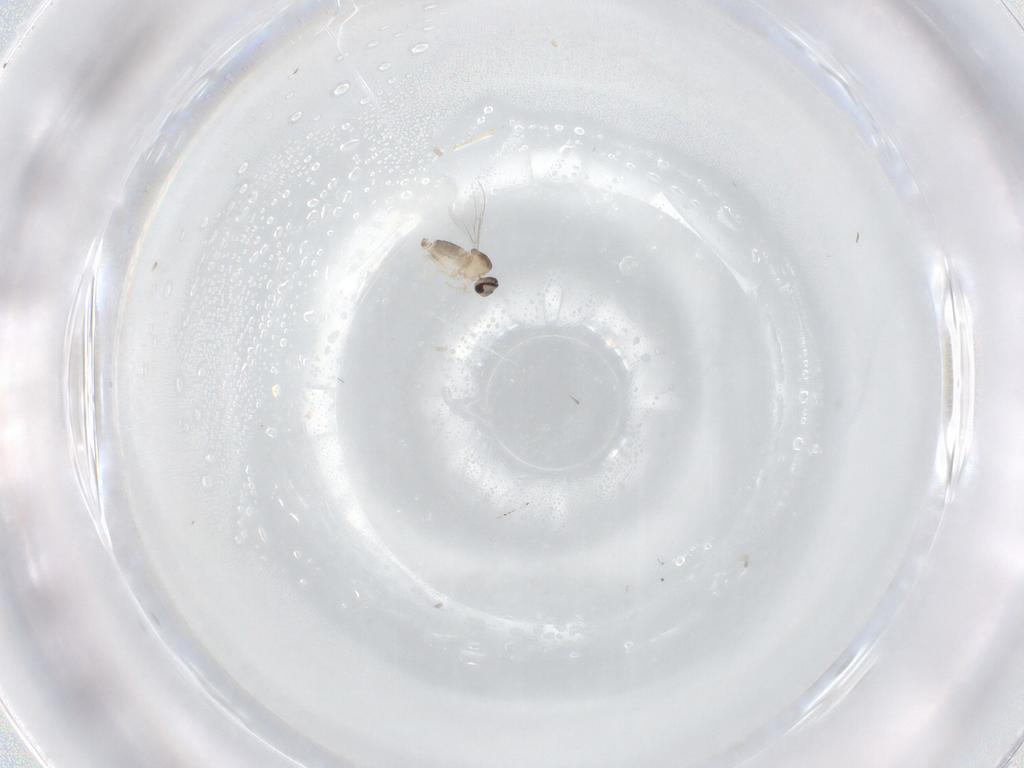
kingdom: Animalia
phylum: Arthropoda
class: Insecta
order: Diptera
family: Cecidomyiidae
